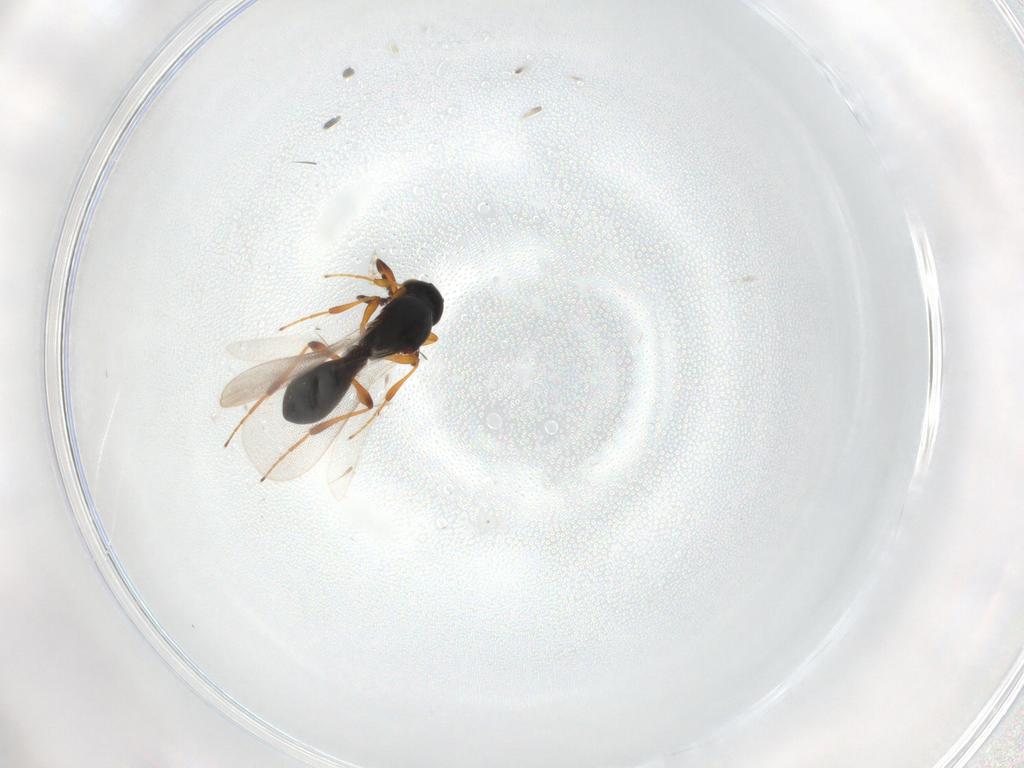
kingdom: Animalia
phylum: Arthropoda
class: Insecta
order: Hymenoptera
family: Platygastridae
